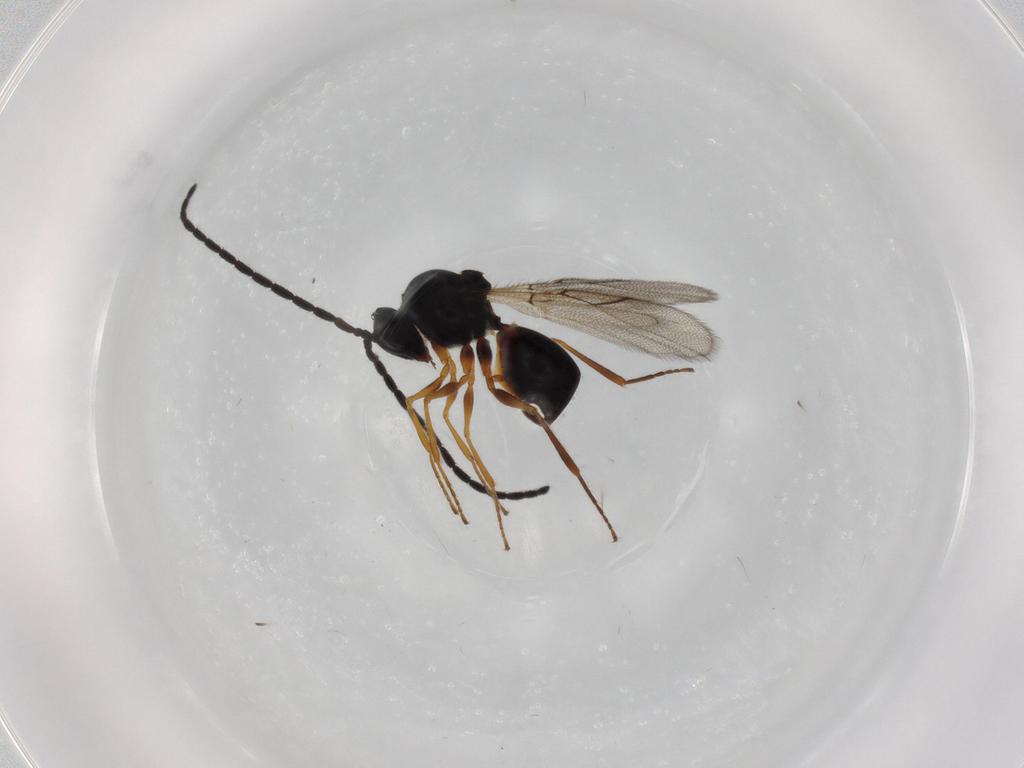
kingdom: Animalia
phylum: Arthropoda
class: Insecta
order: Hymenoptera
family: Figitidae
